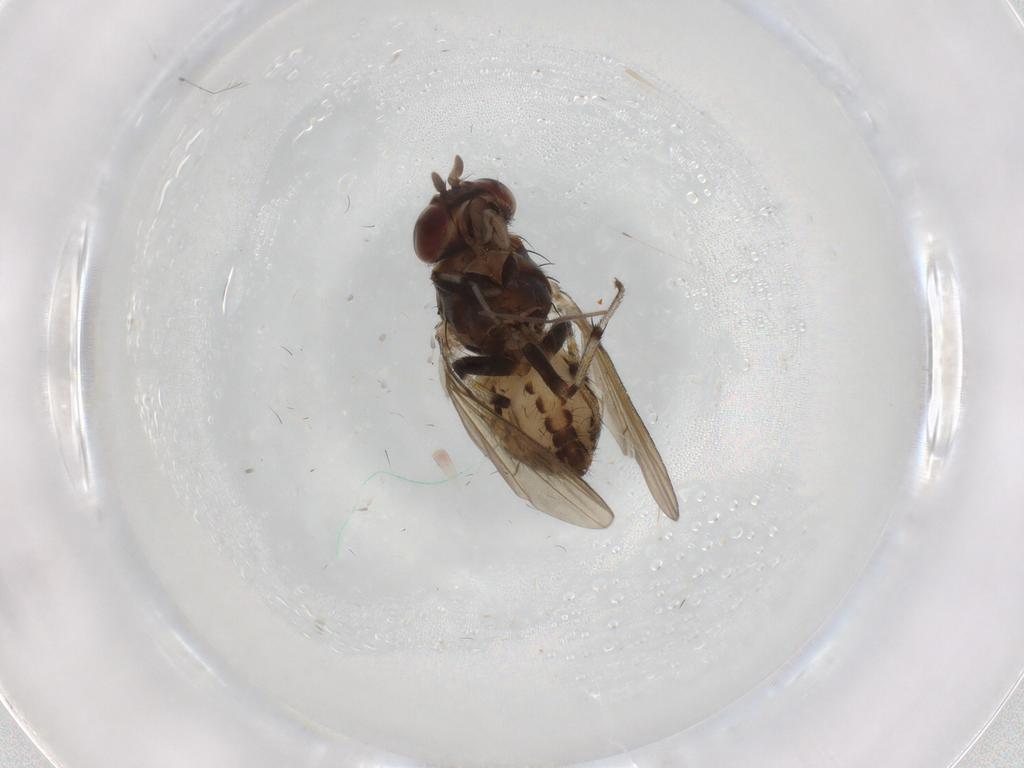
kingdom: Animalia
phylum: Arthropoda
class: Insecta
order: Diptera
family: Lauxaniidae
